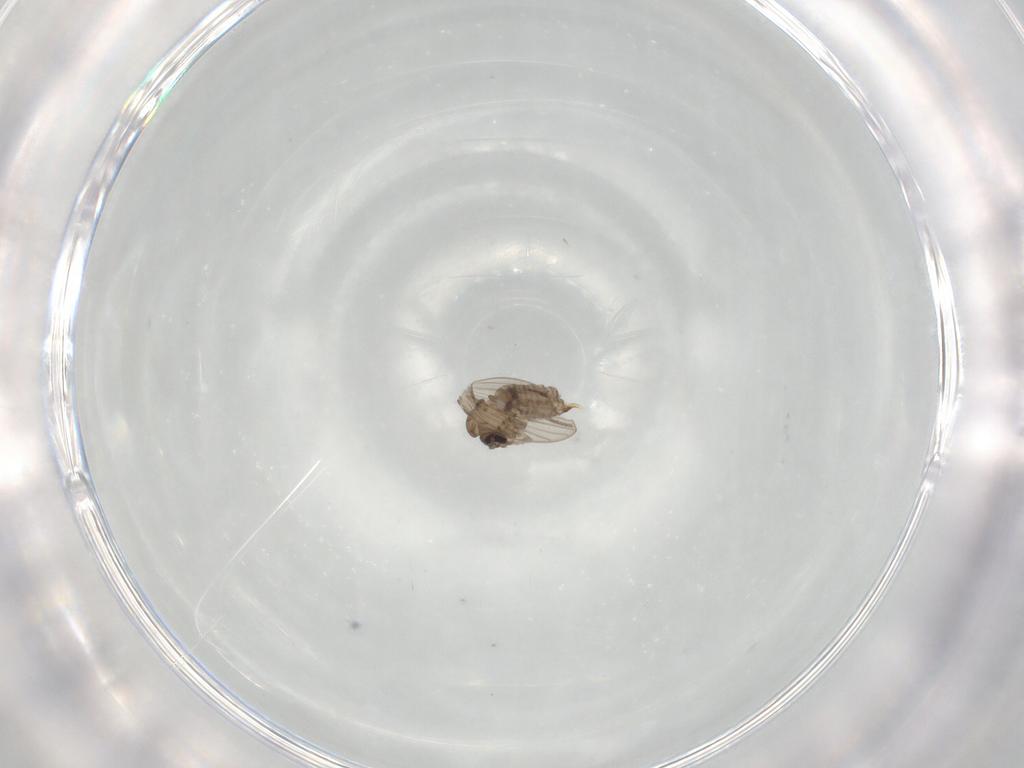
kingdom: Animalia
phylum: Arthropoda
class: Insecta
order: Diptera
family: Psychodidae
